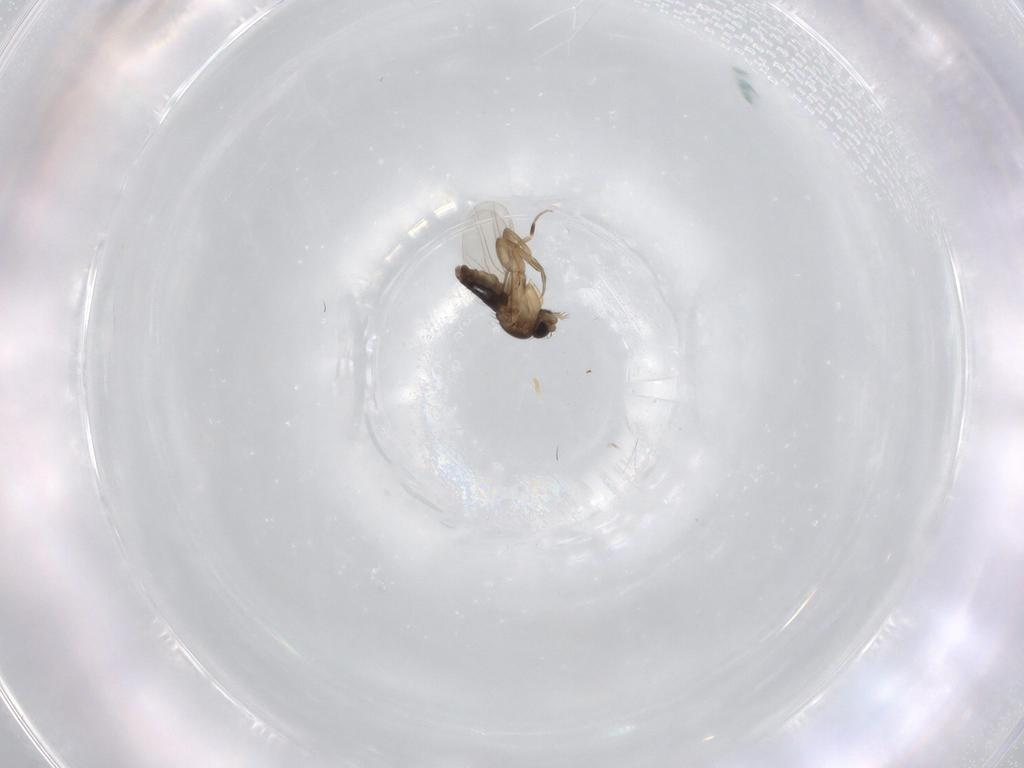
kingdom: Animalia
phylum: Arthropoda
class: Insecta
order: Diptera
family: Phoridae
